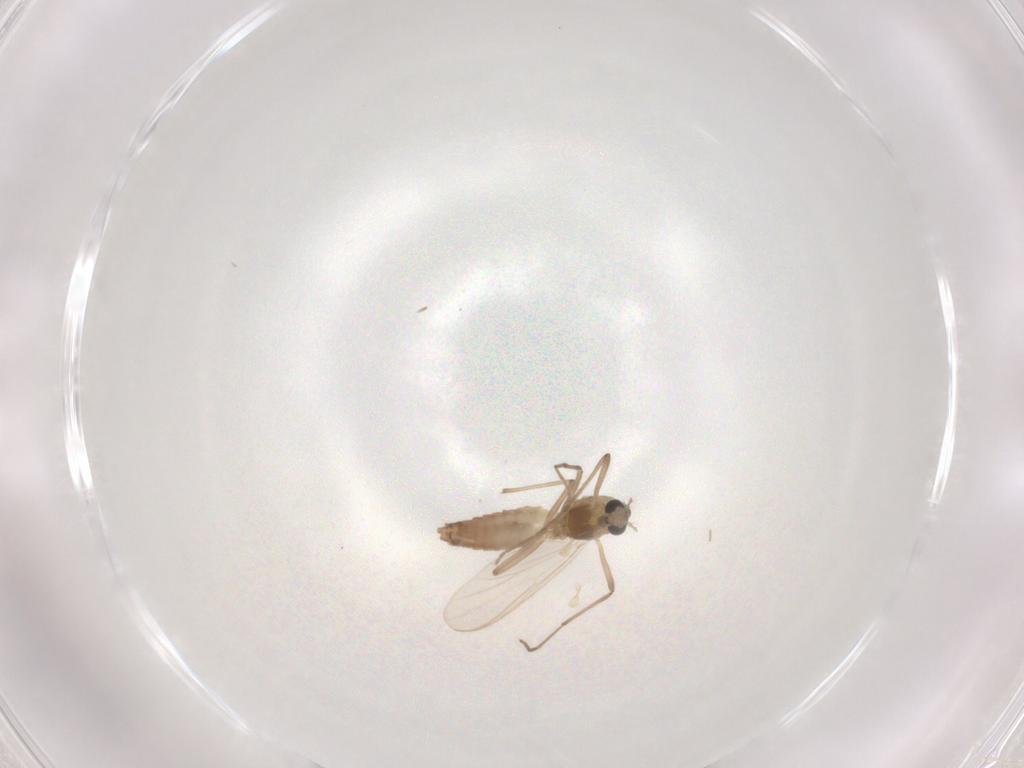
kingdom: Animalia
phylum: Arthropoda
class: Insecta
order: Diptera
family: Chironomidae
